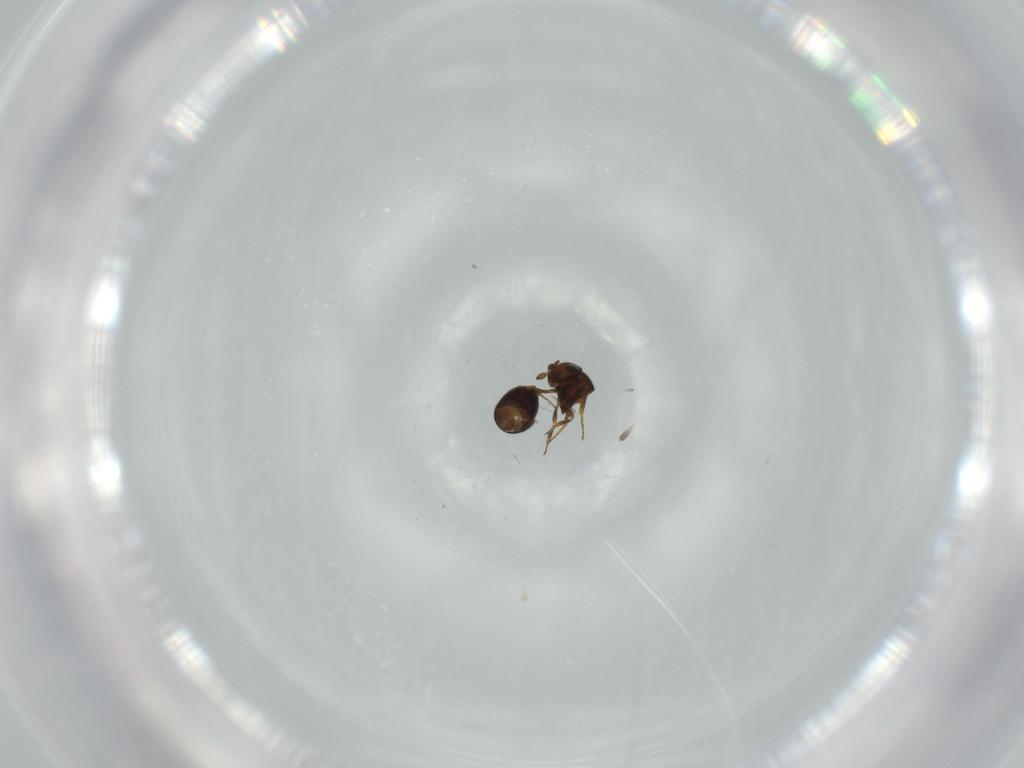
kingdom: Animalia
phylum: Arthropoda
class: Insecta
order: Hymenoptera
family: Scelionidae
